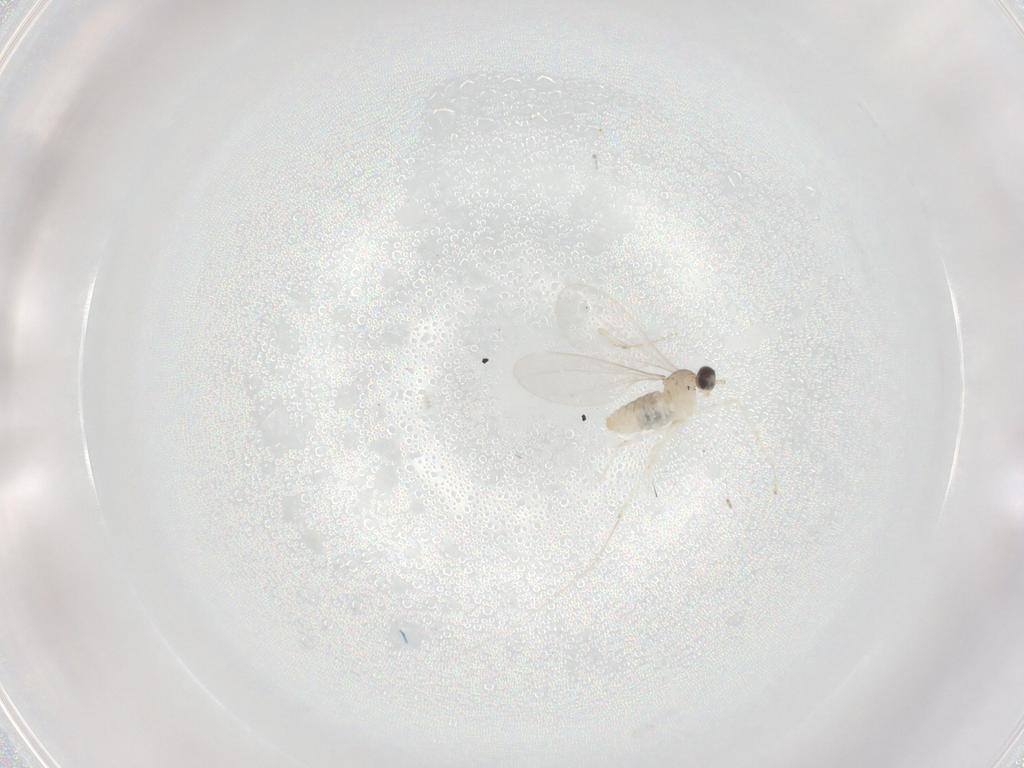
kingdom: Animalia
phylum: Arthropoda
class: Insecta
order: Diptera
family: Cecidomyiidae
